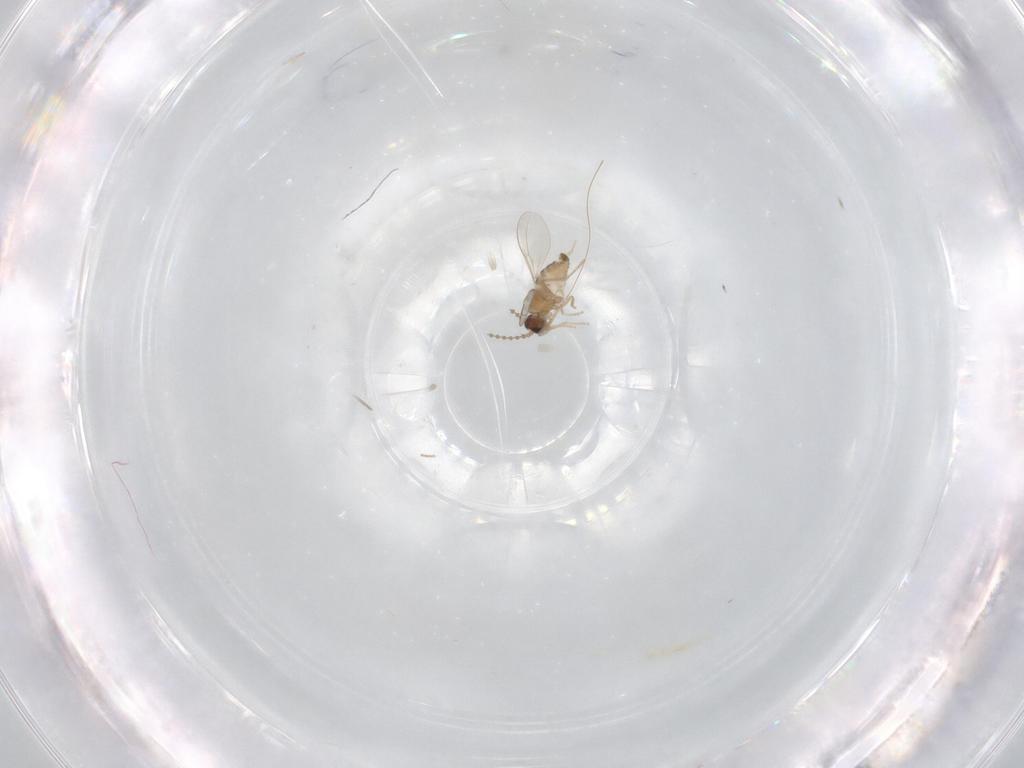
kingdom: Animalia
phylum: Arthropoda
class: Insecta
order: Diptera
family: Cecidomyiidae
